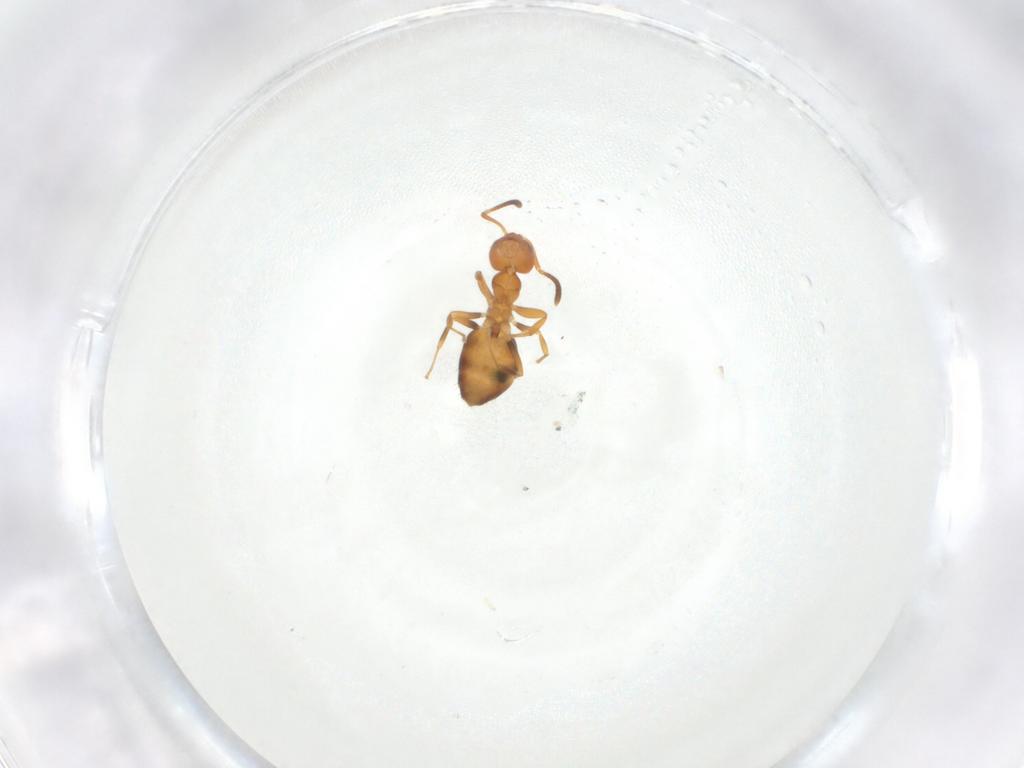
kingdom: Animalia
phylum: Arthropoda
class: Insecta
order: Hymenoptera
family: Formicidae
